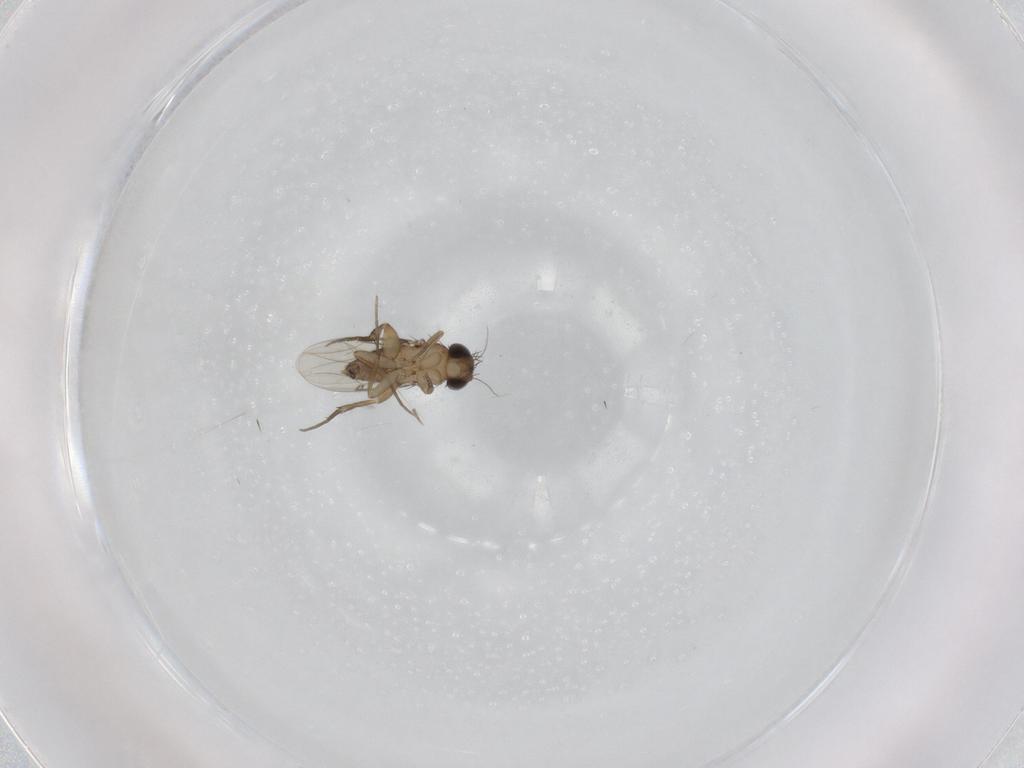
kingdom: Animalia
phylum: Arthropoda
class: Insecta
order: Diptera
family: Phoridae
